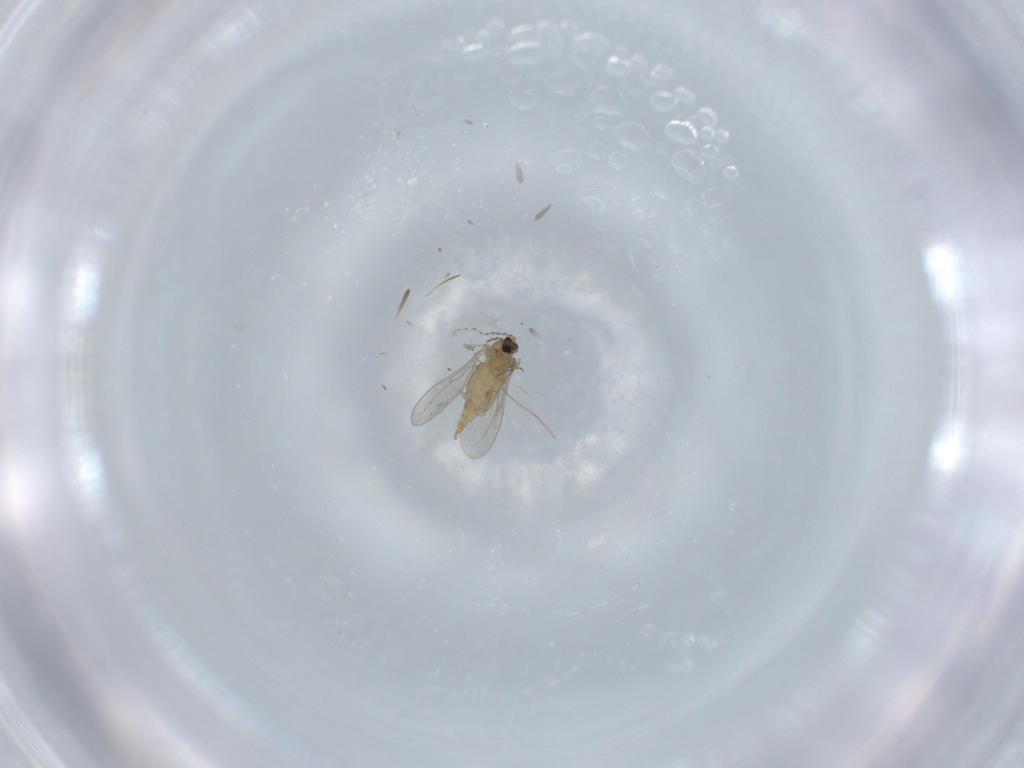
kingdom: Animalia
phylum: Arthropoda
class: Insecta
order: Diptera
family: Cecidomyiidae
